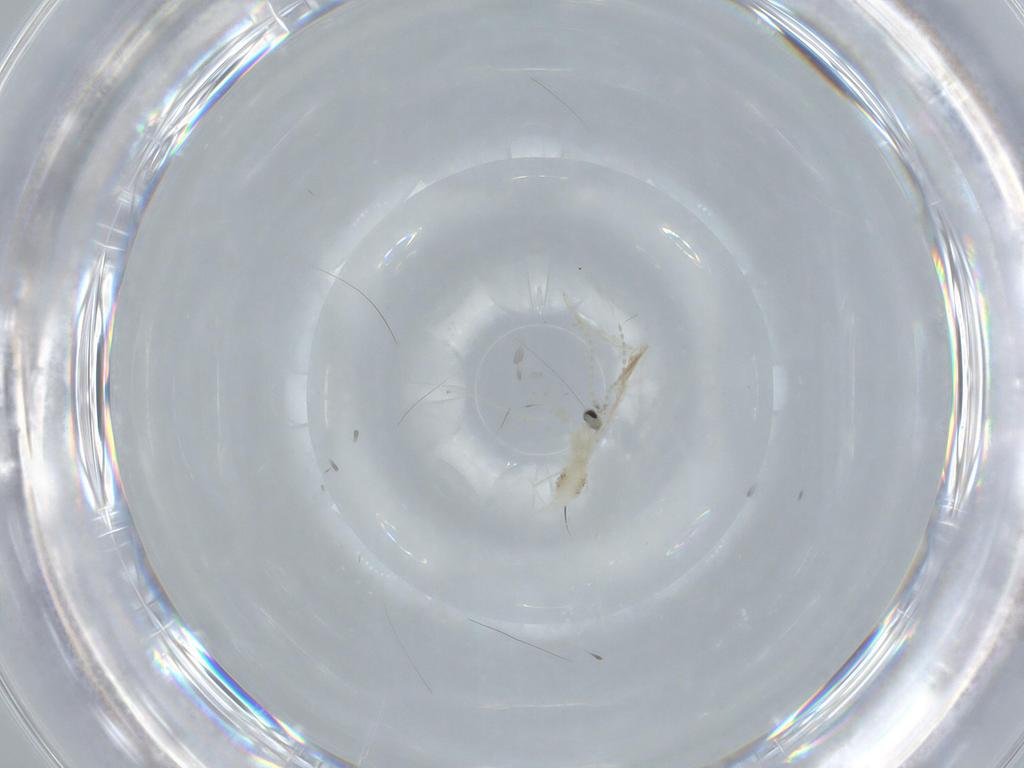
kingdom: Animalia
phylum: Arthropoda
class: Insecta
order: Diptera
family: Cecidomyiidae
